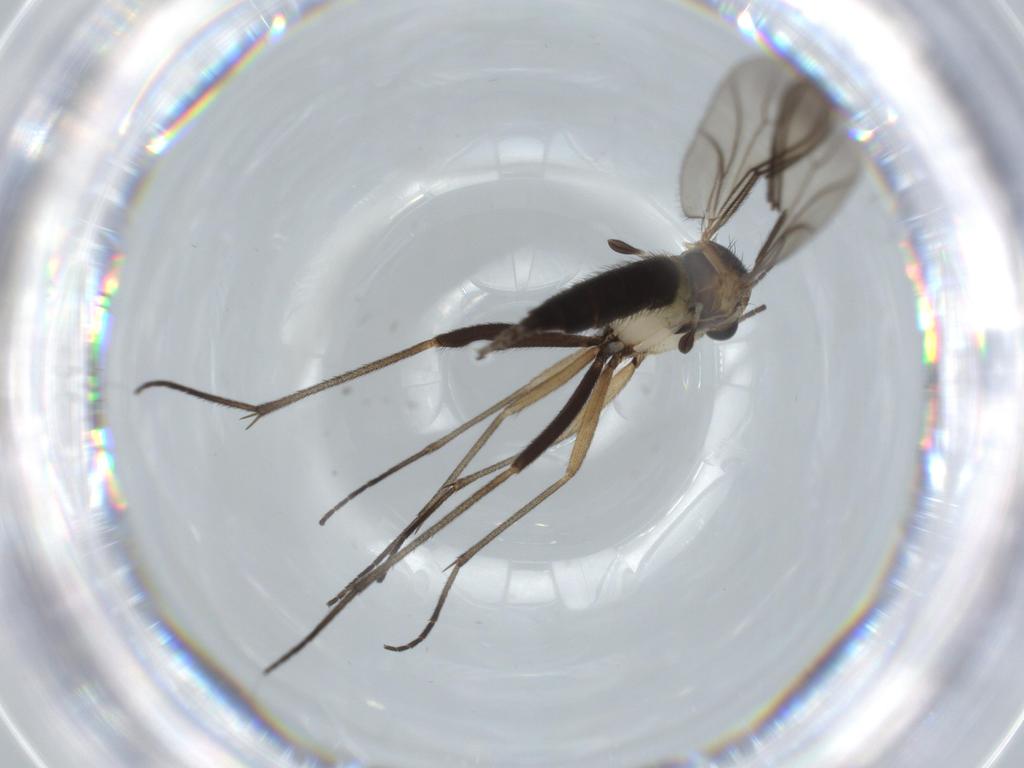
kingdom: Animalia
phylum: Arthropoda
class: Insecta
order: Diptera
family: Sciaridae
